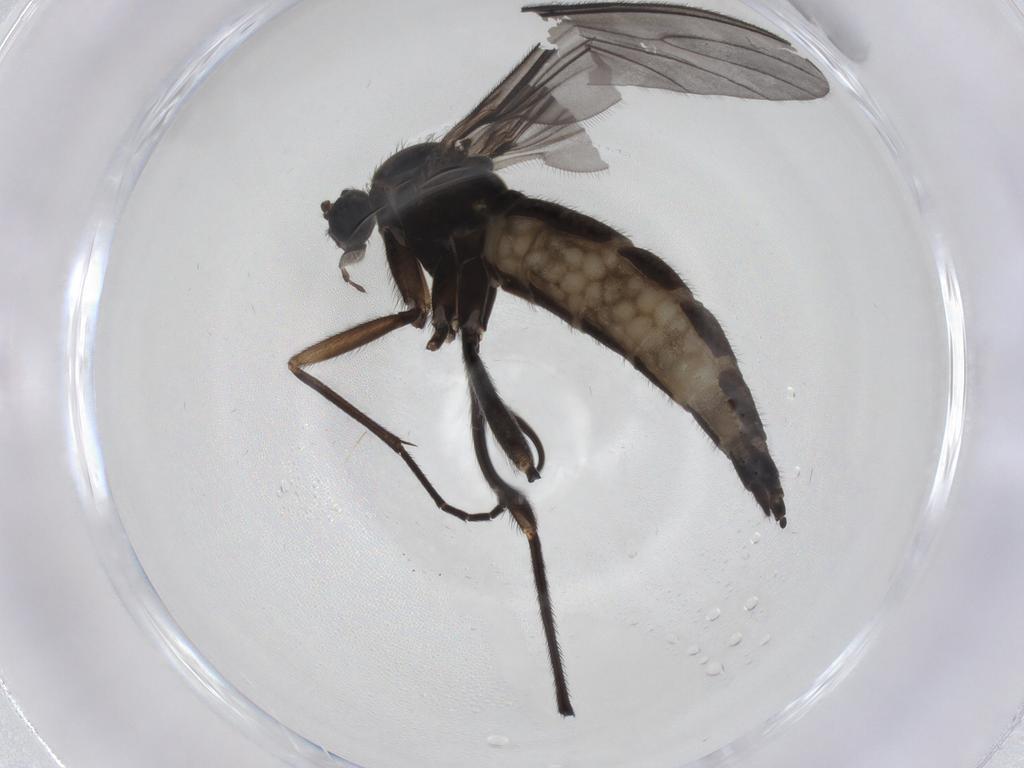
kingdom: Animalia
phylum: Arthropoda
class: Insecta
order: Diptera
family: Sciaridae
